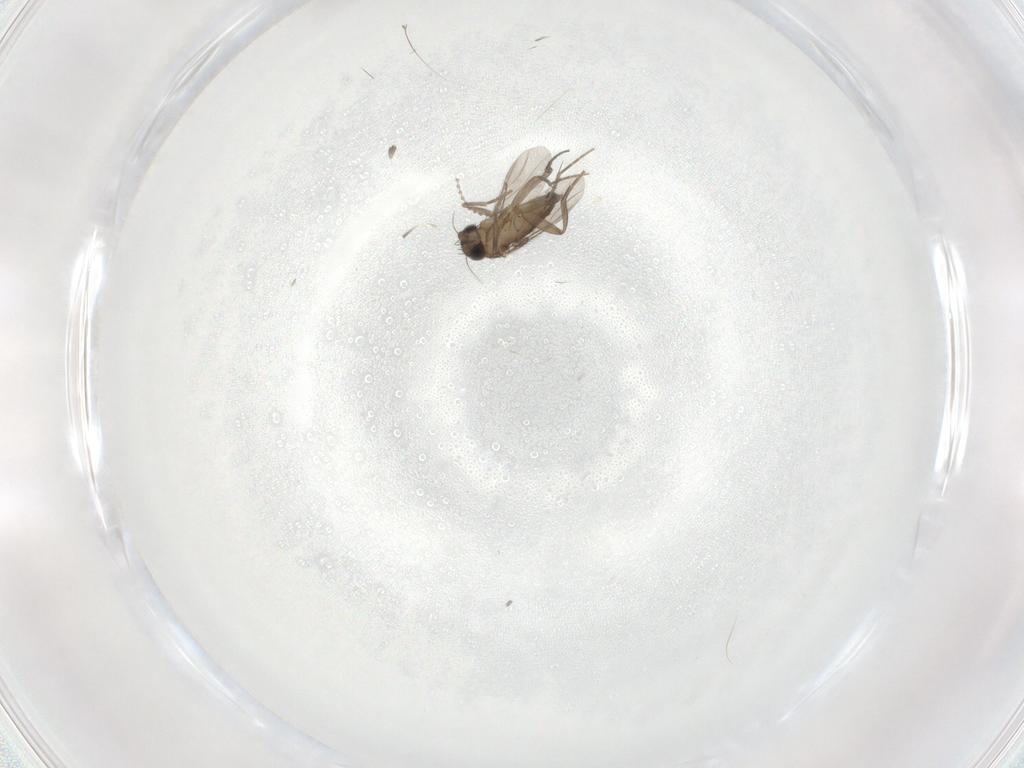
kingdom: Animalia
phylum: Arthropoda
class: Insecta
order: Diptera
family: Phoridae
